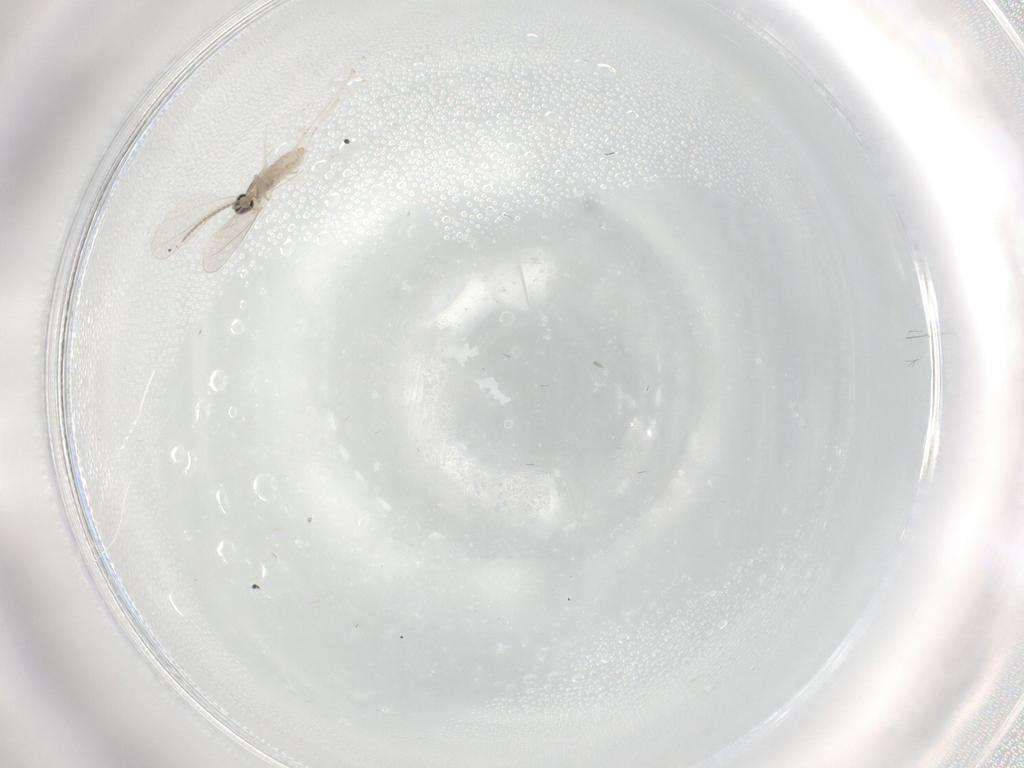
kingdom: Animalia
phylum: Arthropoda
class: Insecta
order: Diptera
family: Cecidomyiidae
